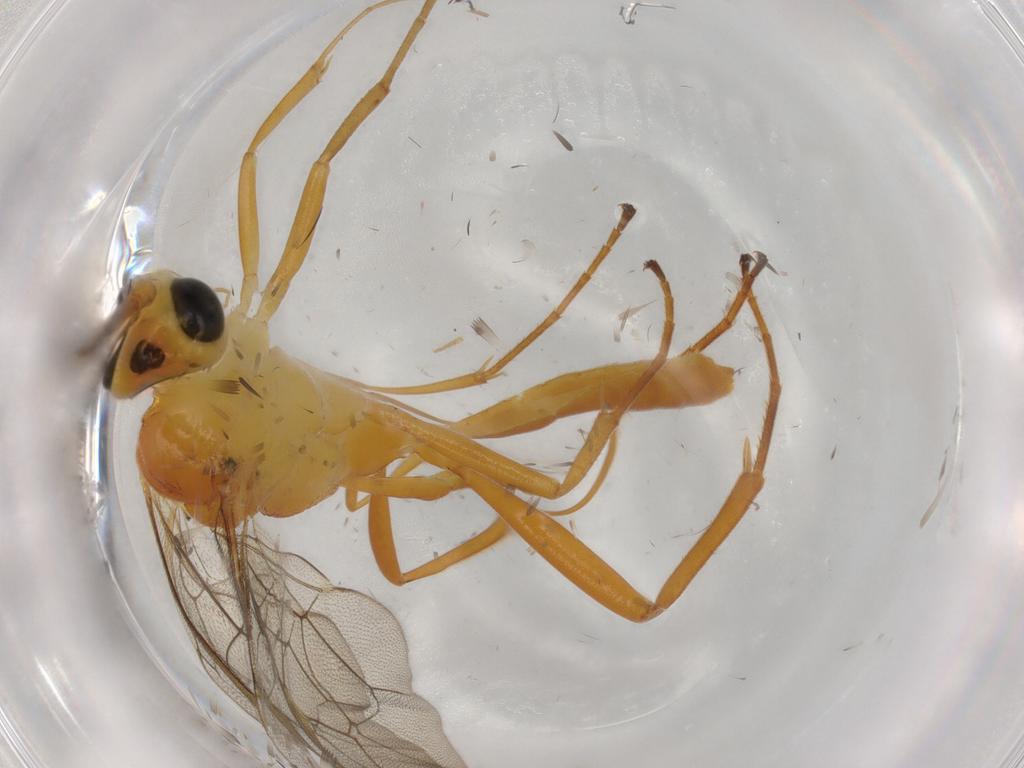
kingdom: Animalia
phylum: Arthropoda
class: Insecta
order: Hymenoptera
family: Ichneumonidae
